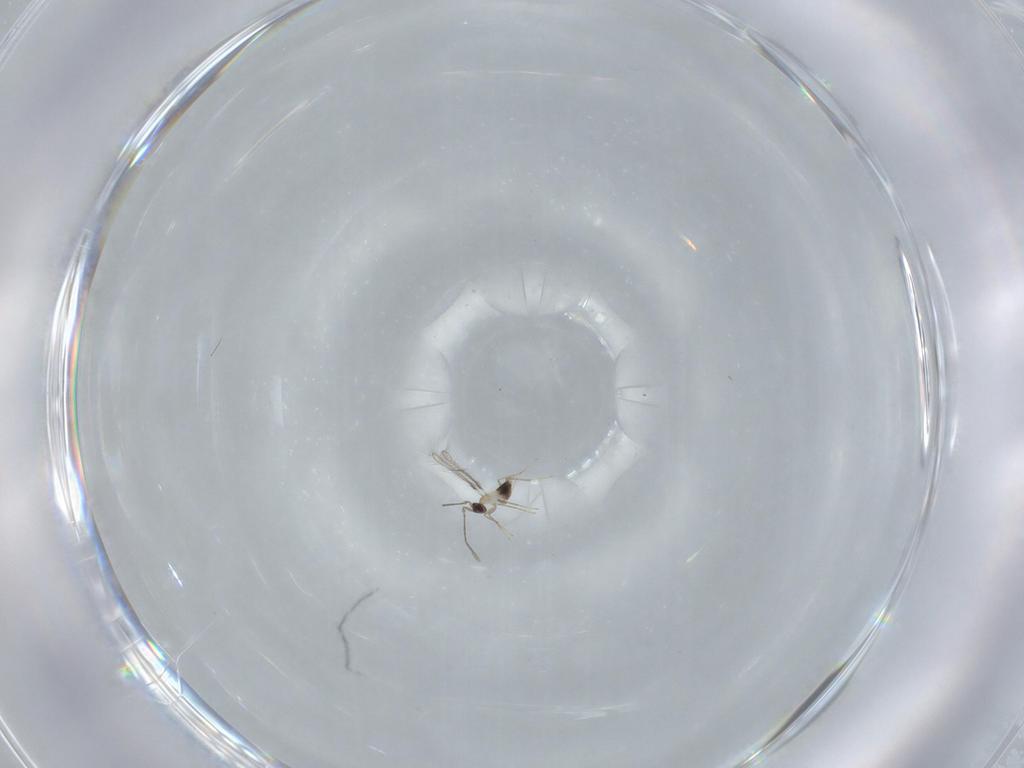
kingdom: Animalia
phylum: Arthropoda
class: Insecta
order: Hymenoptera
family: Mymaridae
